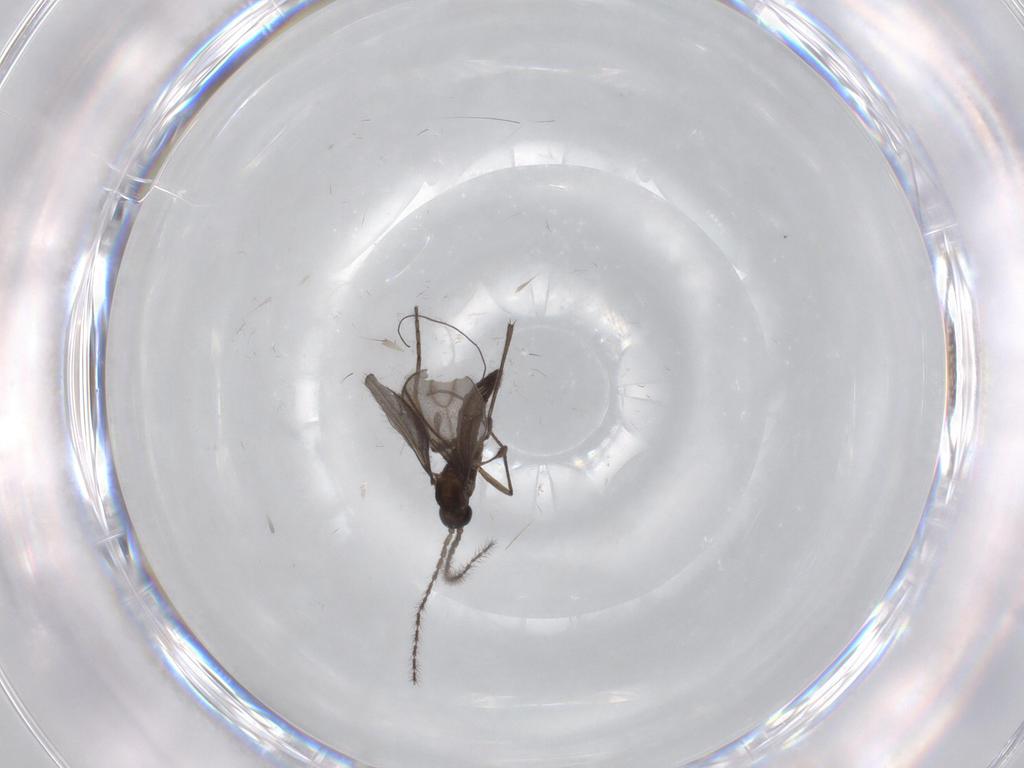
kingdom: Animalia
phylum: Arthropoda
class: Insecta
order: Diptera
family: Sciaridae
